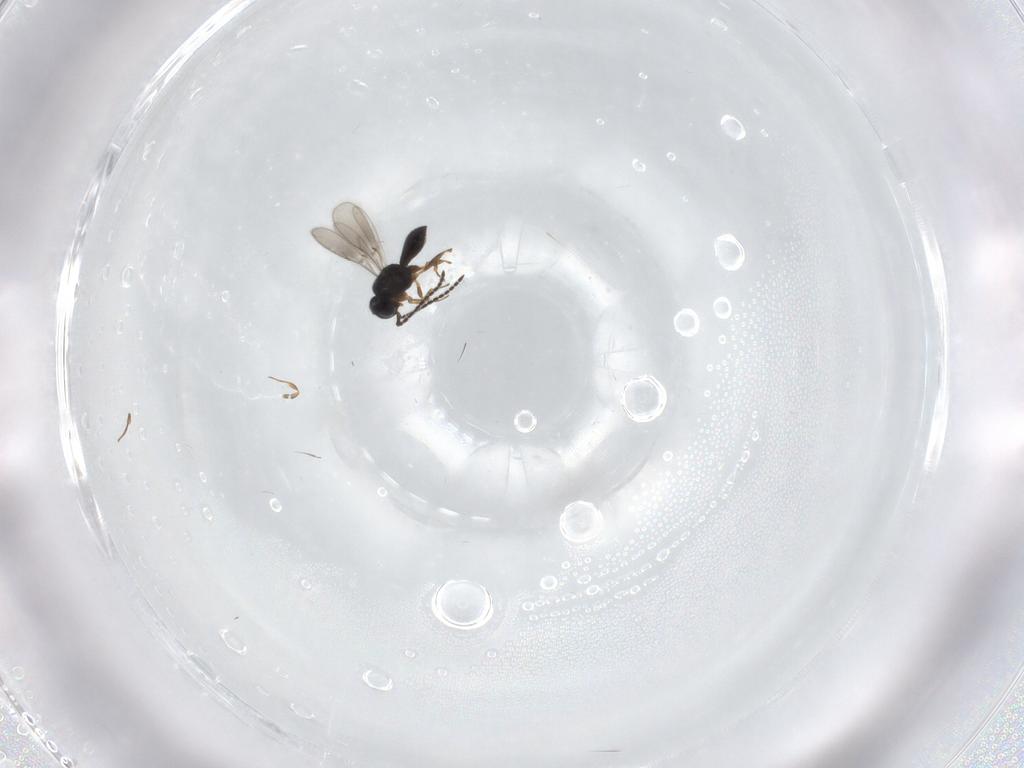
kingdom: Animalia
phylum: Arthropoda
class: Insecta
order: Hymenoptera
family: Scelionidae
